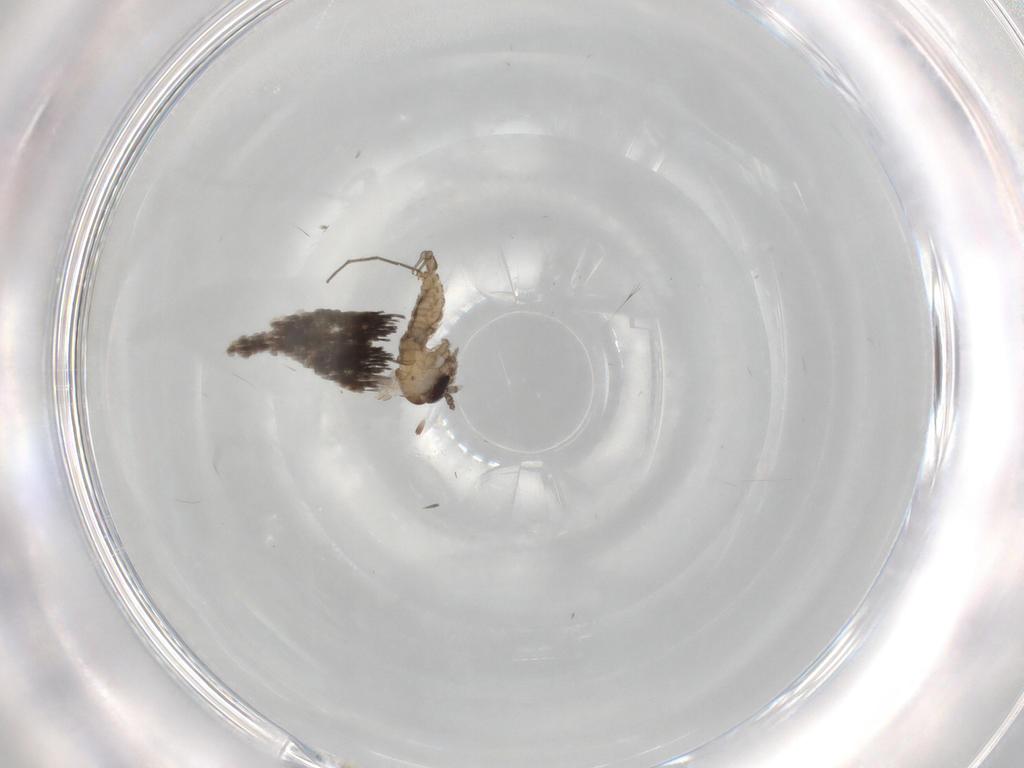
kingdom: Animalia
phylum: Arthropoda
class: Insecta
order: Diptera
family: Psychodidae
